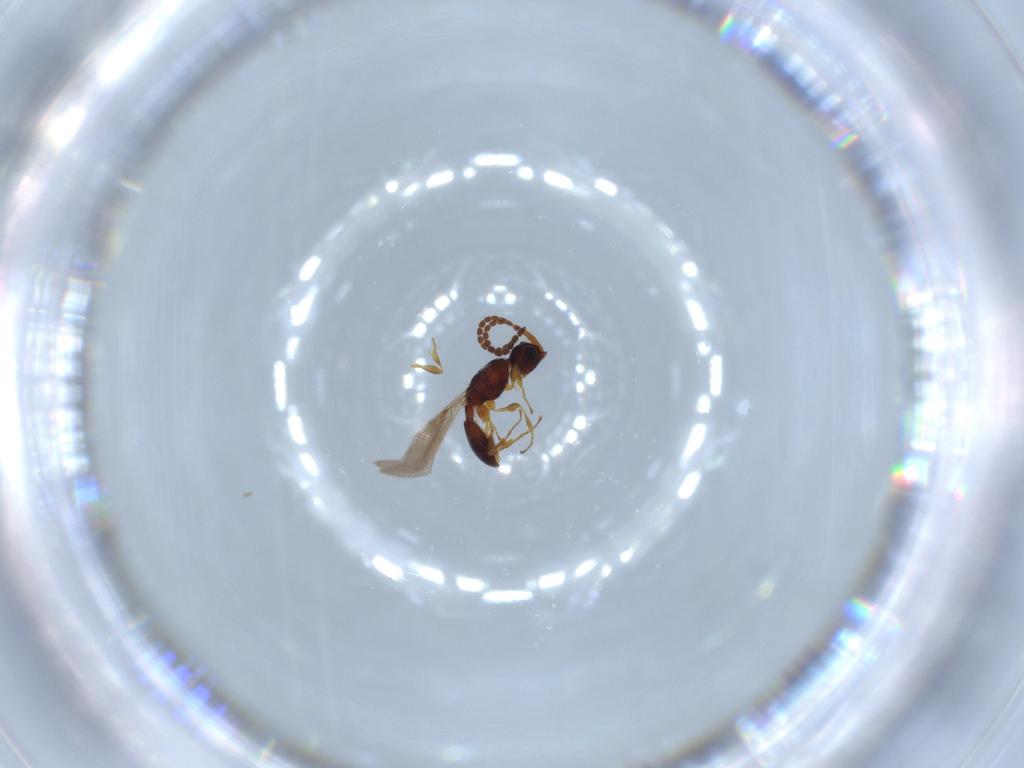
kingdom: Animalia
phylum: Arthropoda
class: Insecta
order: Hymenoptera
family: Diapriidae
